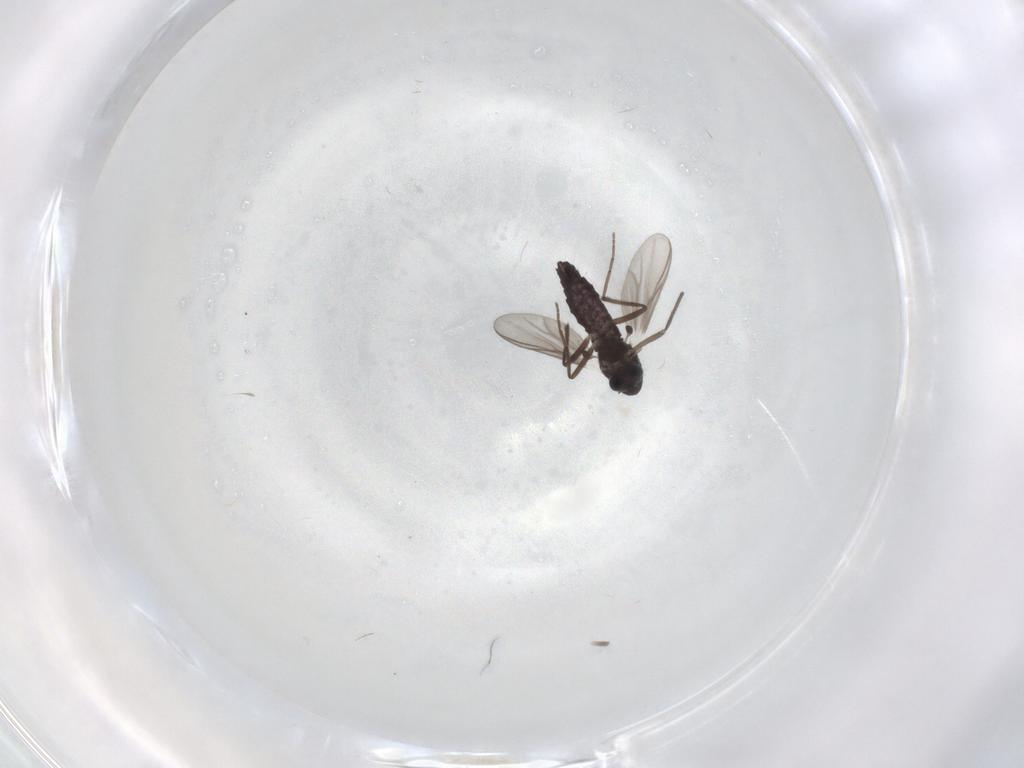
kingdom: Animalia
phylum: Arthropoda
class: Insecta
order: Diptera
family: Chironomidae
